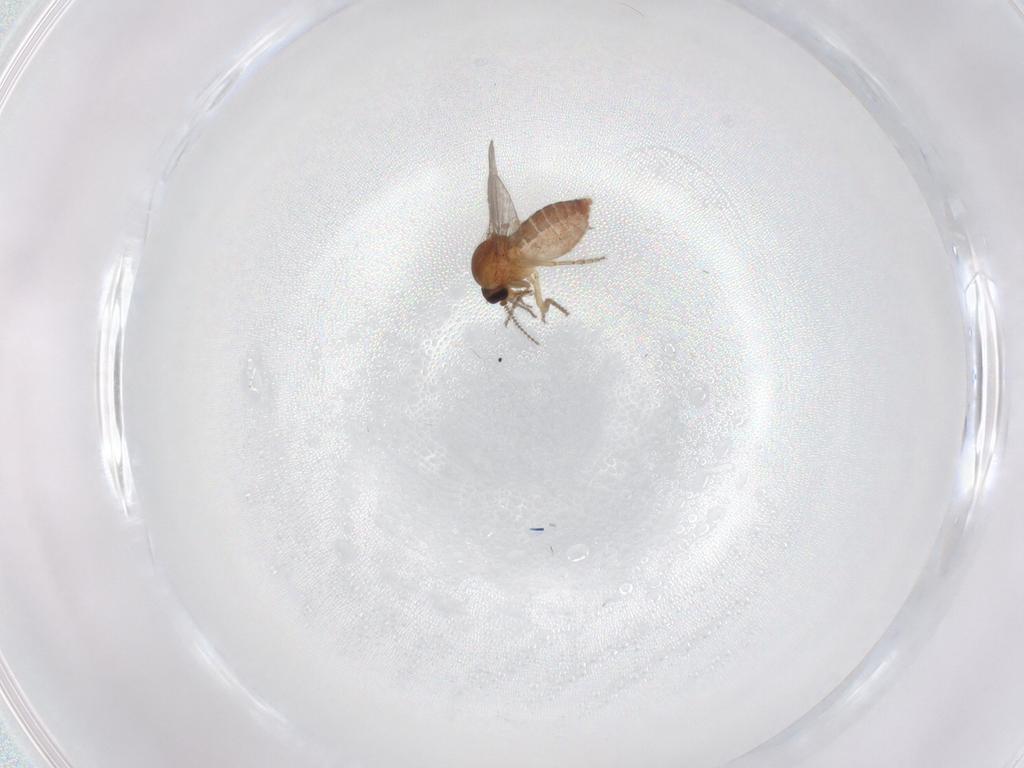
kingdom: Animalia
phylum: Arthropoda
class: Insecta
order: Diptera
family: Ceratopogonidae
